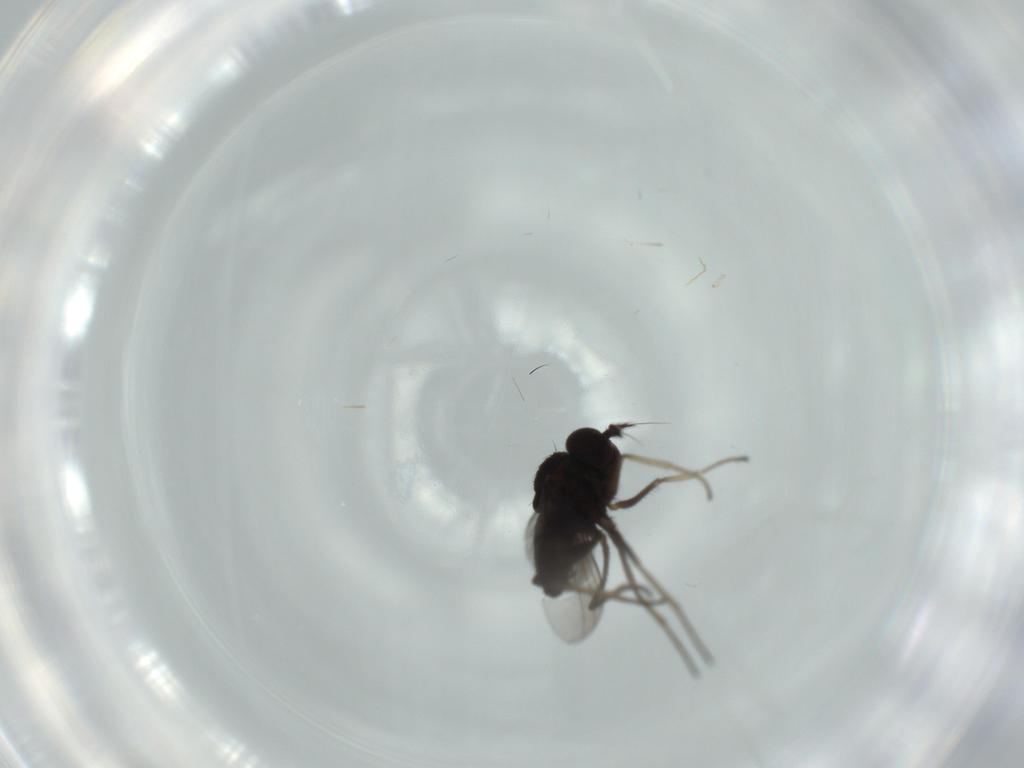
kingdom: Animalia
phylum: Arthropoda
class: Insecta
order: Diptera
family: Dolichopodidae
